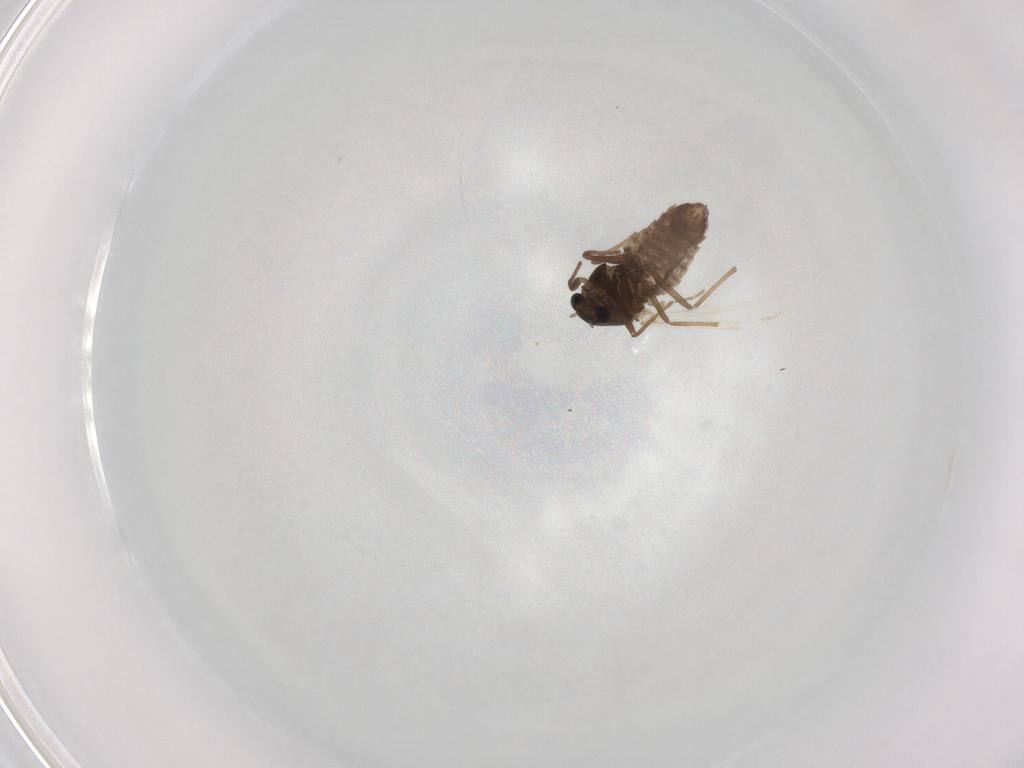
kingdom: Animalia
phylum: Arthropoda
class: Insecta
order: Diptera
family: Chironomidae
